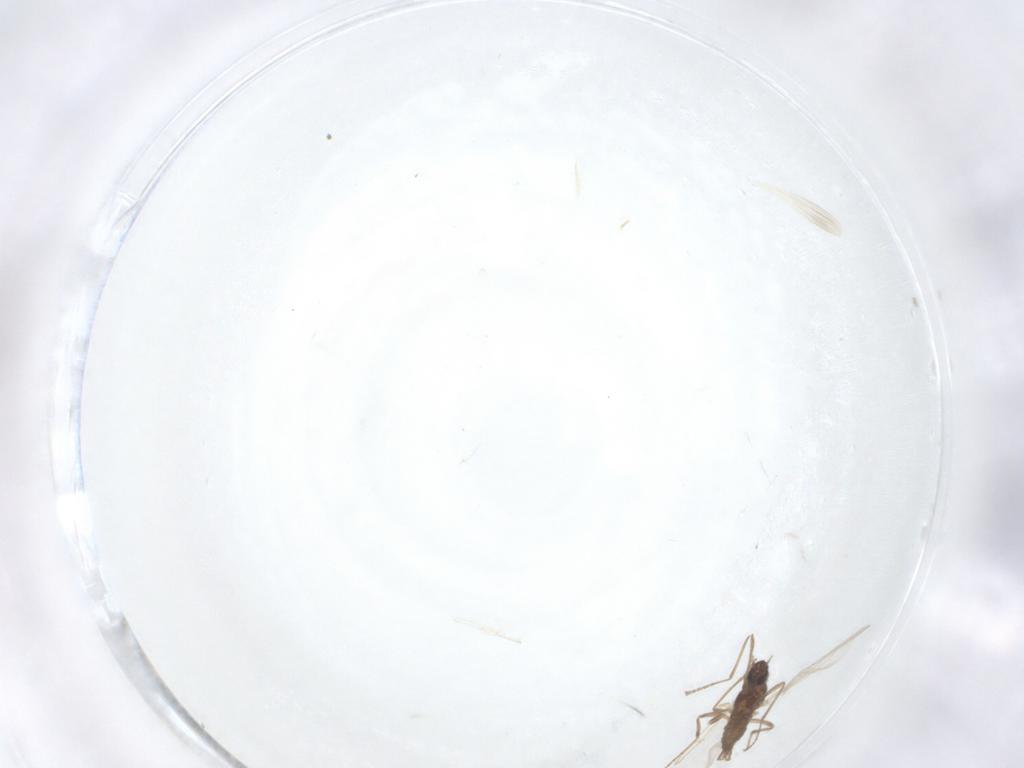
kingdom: Animalia
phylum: Arthropoda
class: Insecta
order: Diptera
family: Cecidomyiidae
